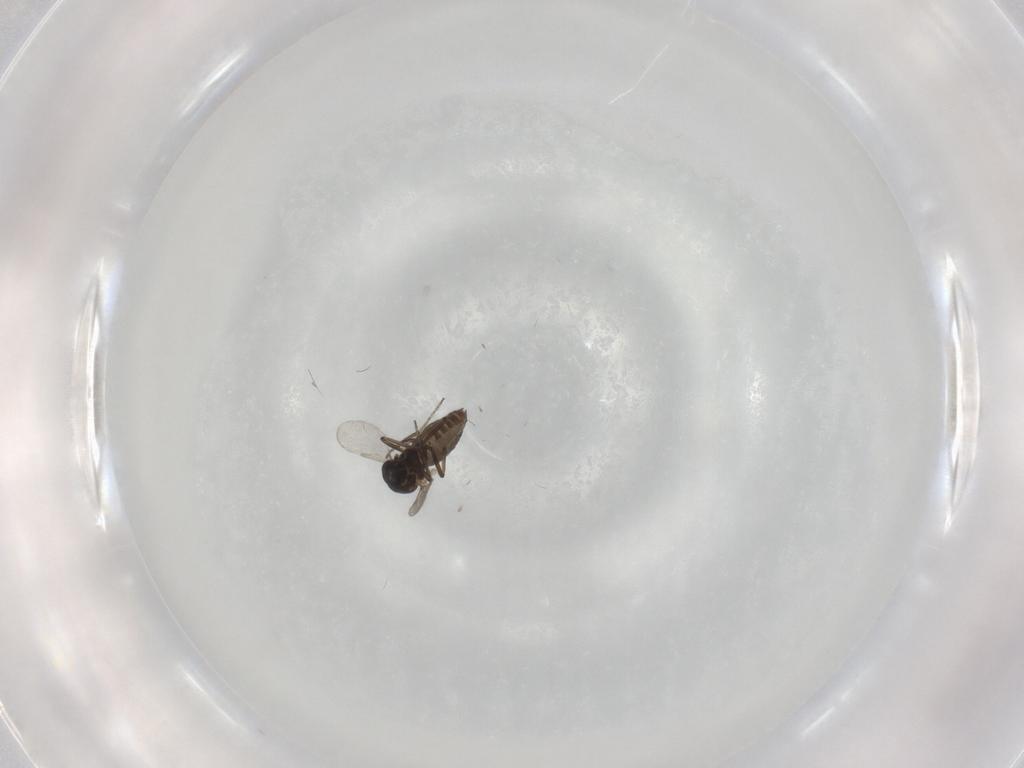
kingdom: Animalia
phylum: Arthropoda
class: Insecta
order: Diptera
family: Ceratopogonidae
